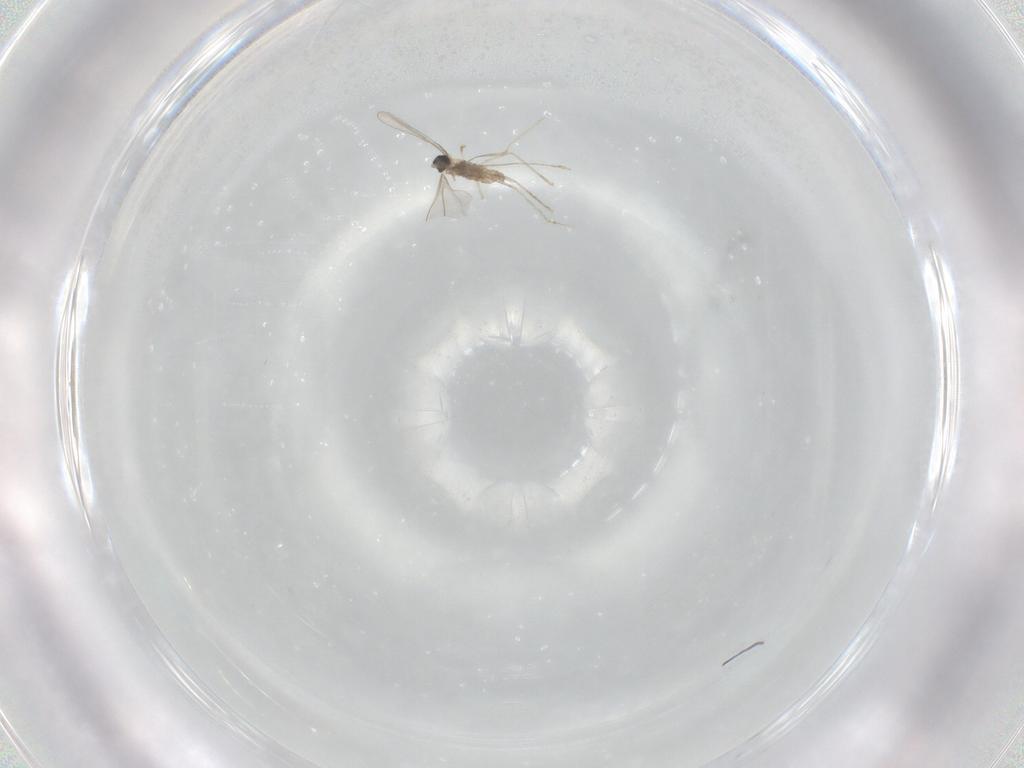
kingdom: Animalia
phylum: Arthropoda
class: Insecta
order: Diptera
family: Cecidomyiidae
